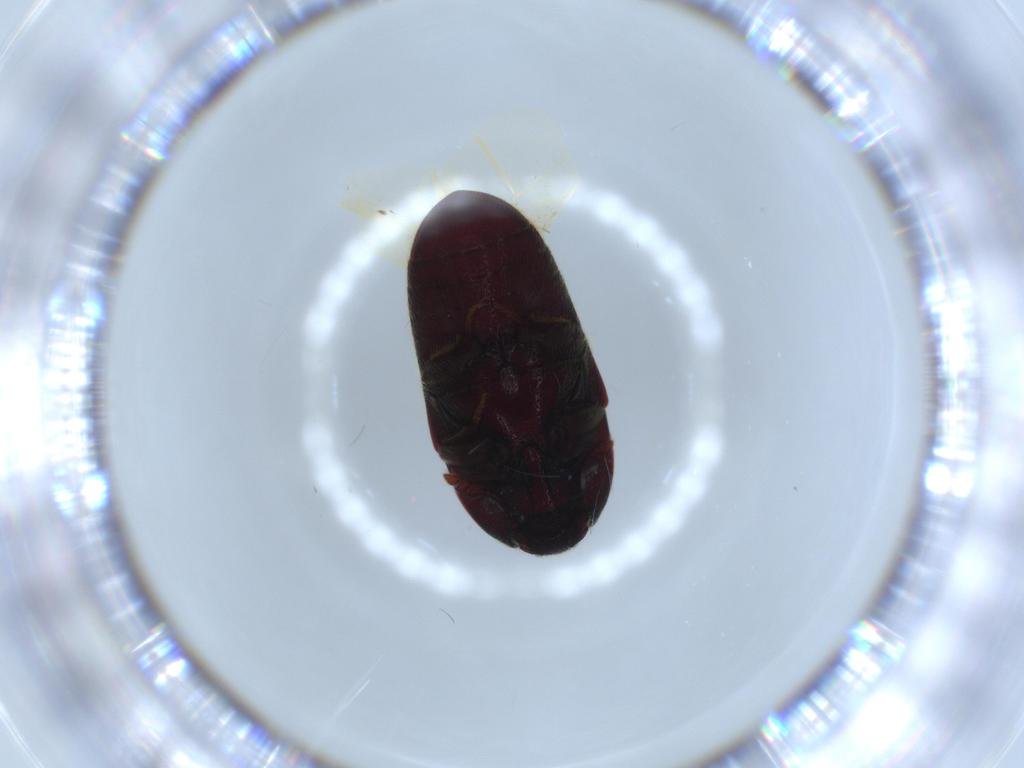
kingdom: Animalia
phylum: Arthropoda
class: Insecta
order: Coleoptera
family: Throscidae
